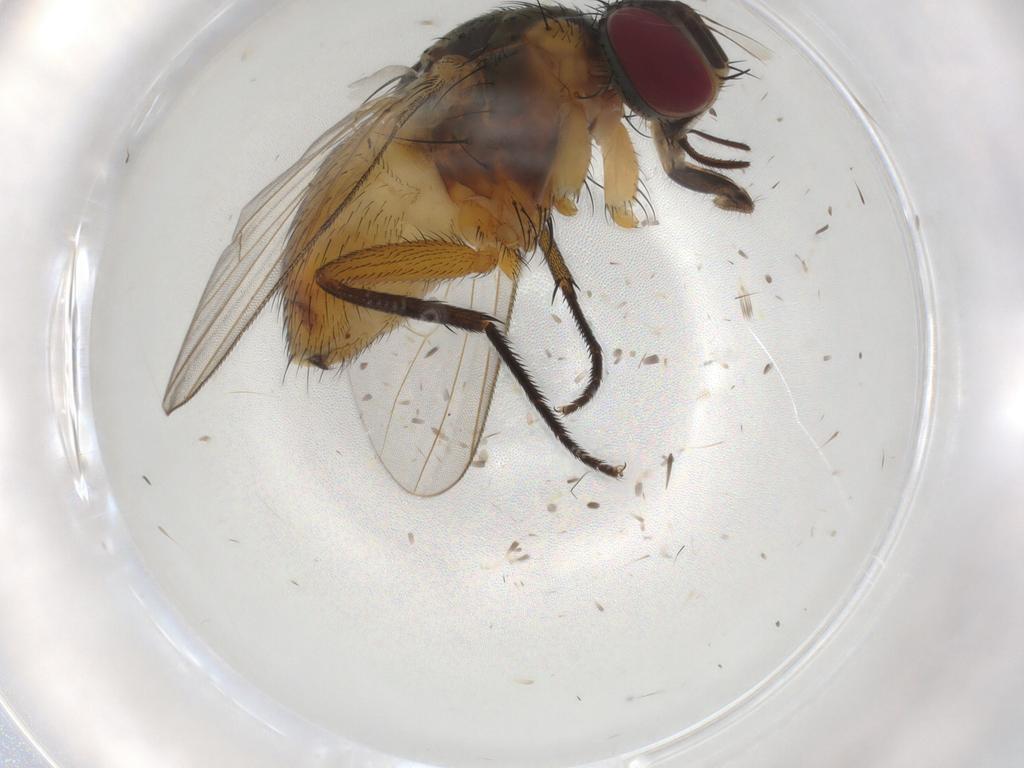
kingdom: Animalia
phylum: Arthropoda
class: Insecta
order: Diptera
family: Muscidae
